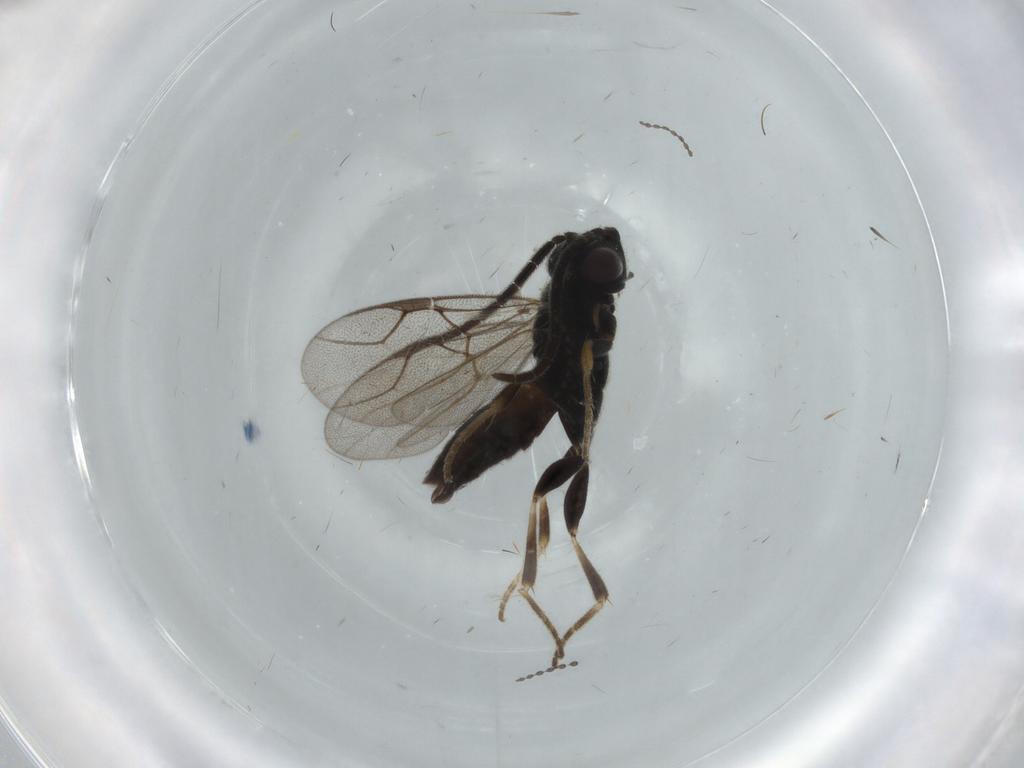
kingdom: Animalia
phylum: Arthropoda
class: Insecta
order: Hymenoptera
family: Dryinidae
